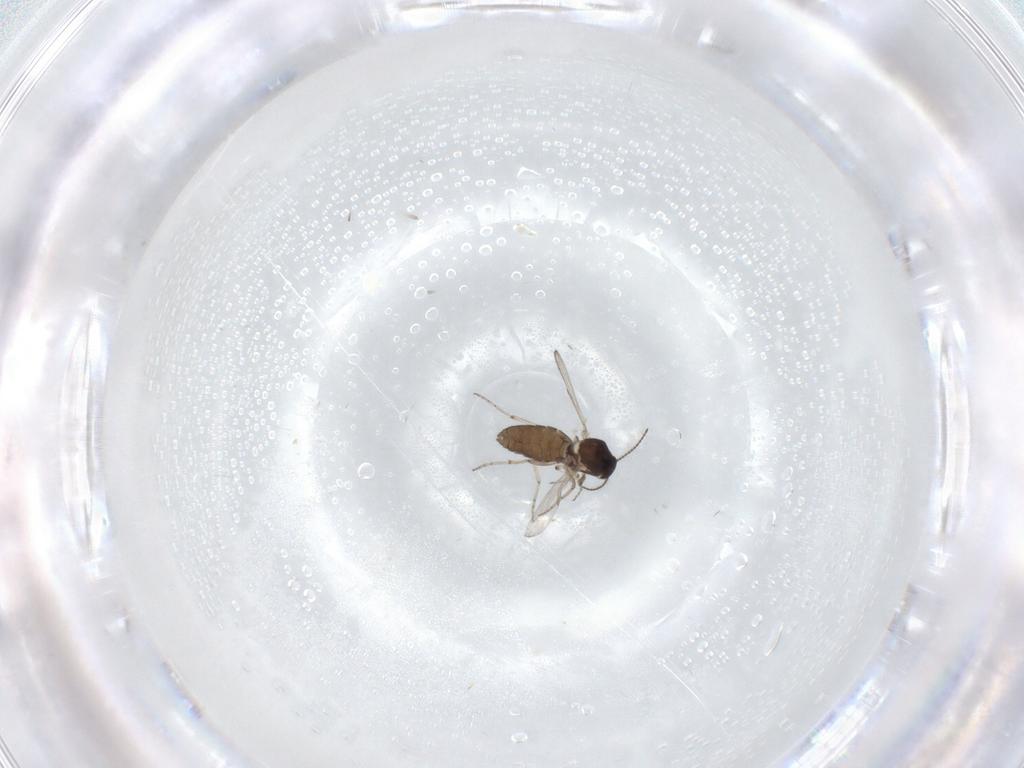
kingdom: Animalia
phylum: Arthropoda
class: Insecta
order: Diptera
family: Ceratopogonidae
